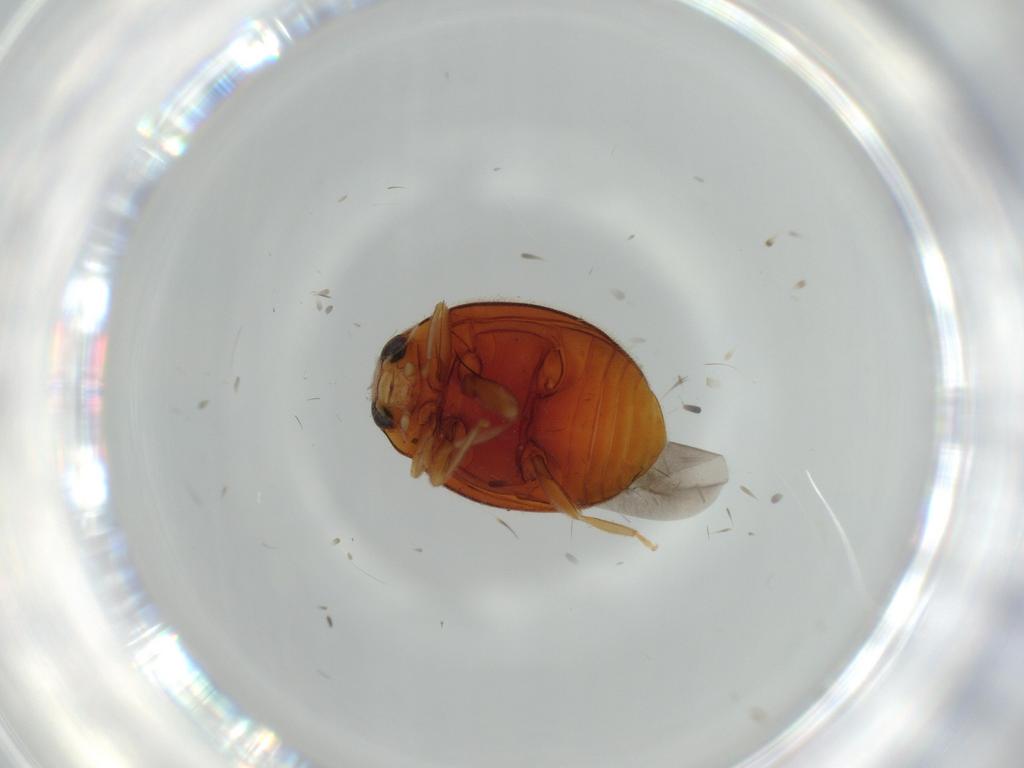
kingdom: Animalia
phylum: Arthropoda
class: Insecta
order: Coleoptera
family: Coccinellidae
